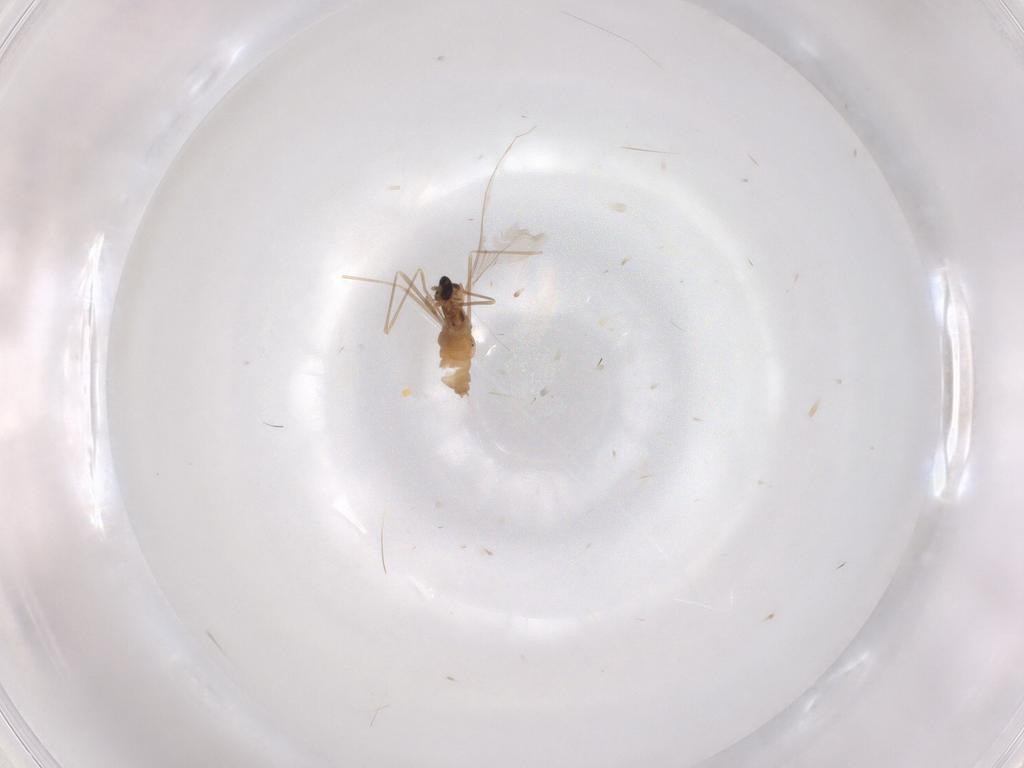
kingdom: Animalia
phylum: Arthropoda
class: Insecta
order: Diptera
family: Cecidomyiidae
